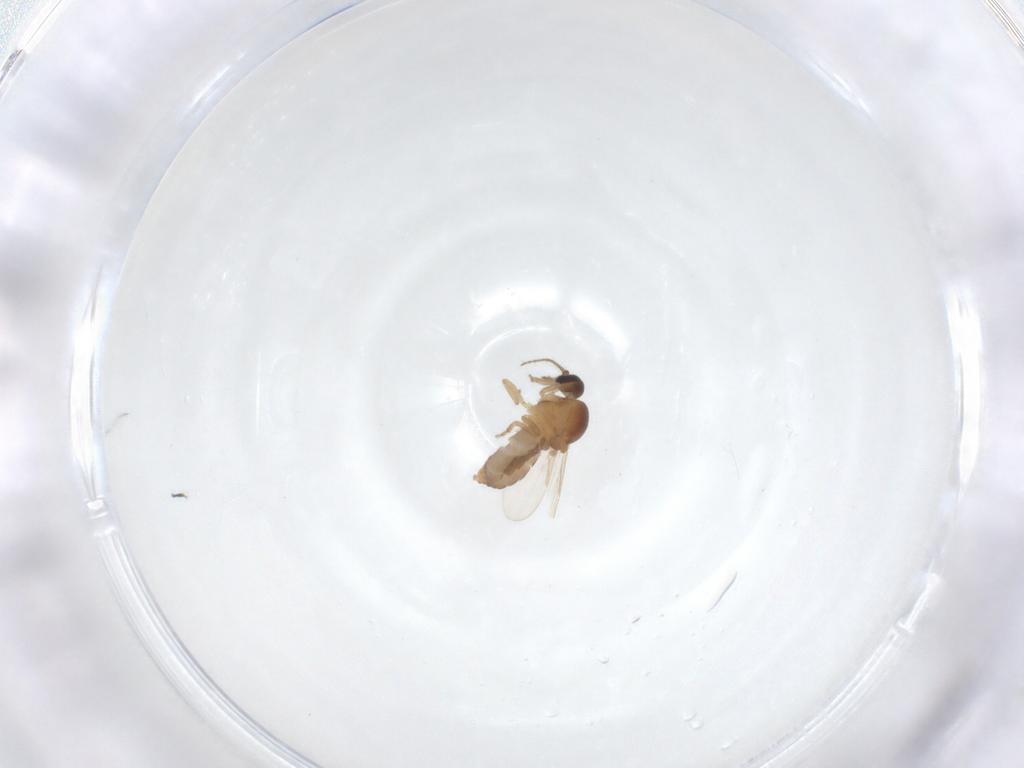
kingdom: Animalia
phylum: Arthropoda
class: Insecta
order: Diptera
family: Ceratopogonidae
